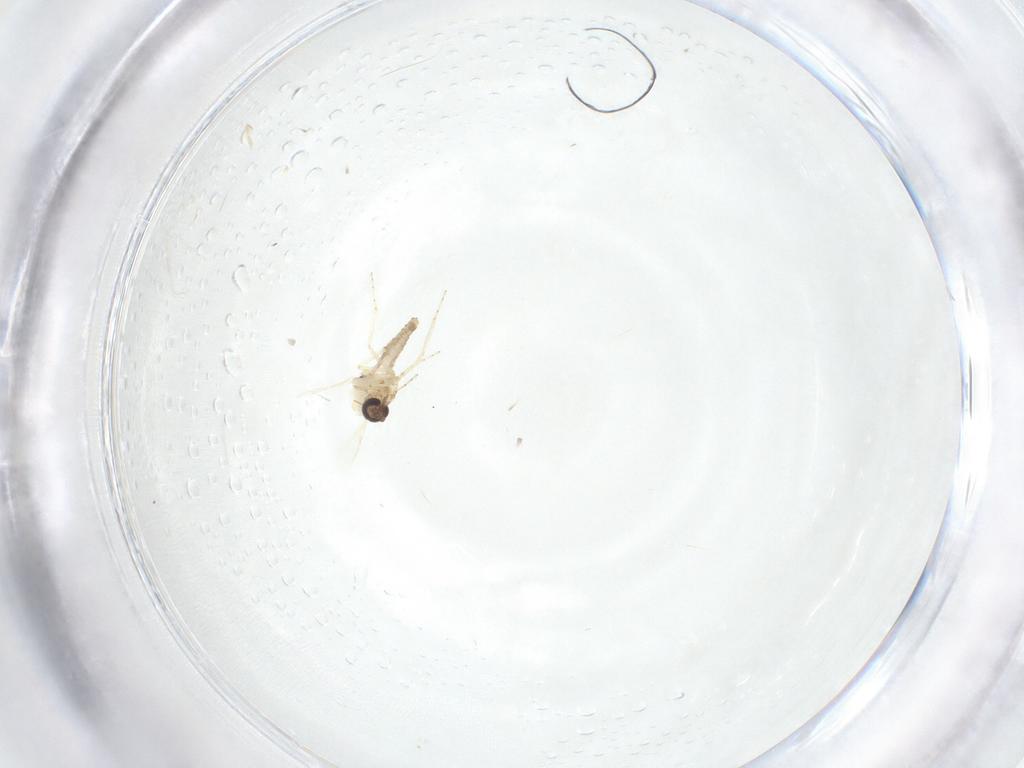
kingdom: Animalia
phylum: Arthropoda
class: Insecta
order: Diptera
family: Ceratopogonidae
